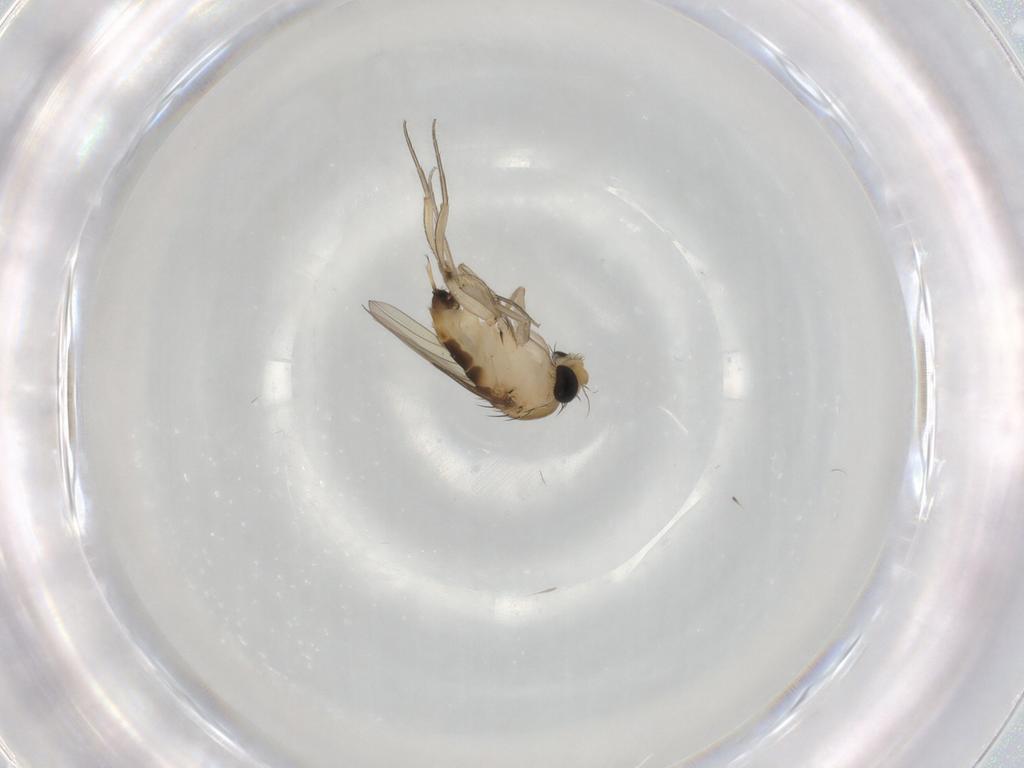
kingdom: Animalia
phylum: Arthropoda
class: Insecta
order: Diptera
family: Phoridae
